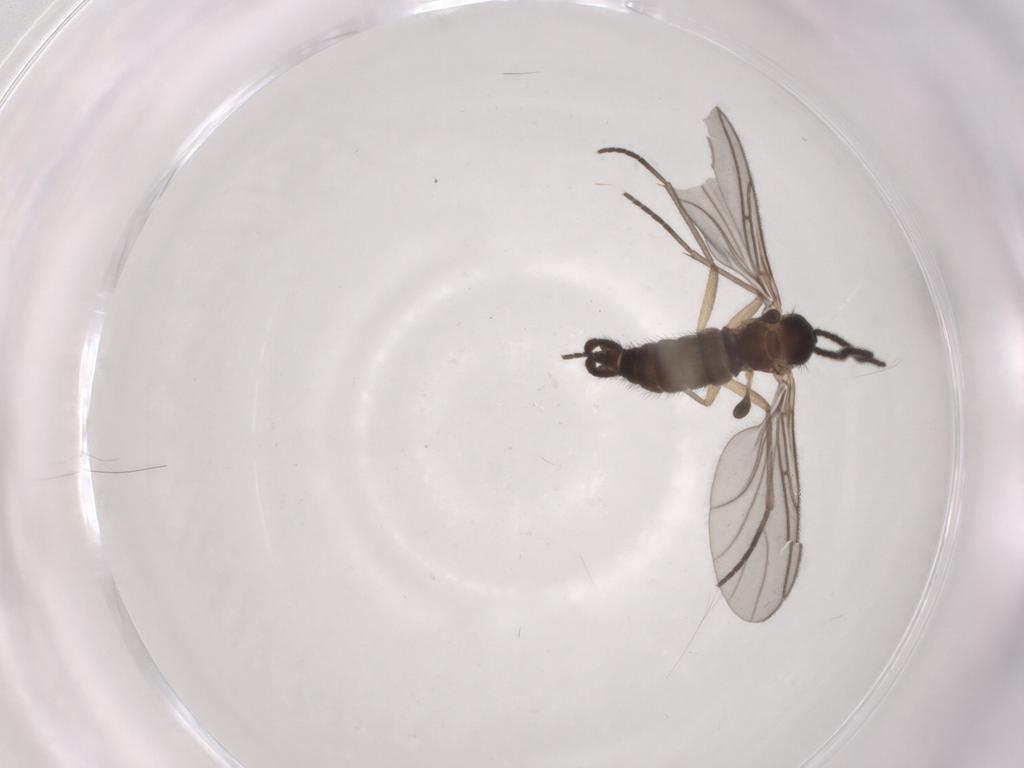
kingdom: Animalia
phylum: Arthropoda
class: Insecta
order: Diptera
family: Sciaridae
